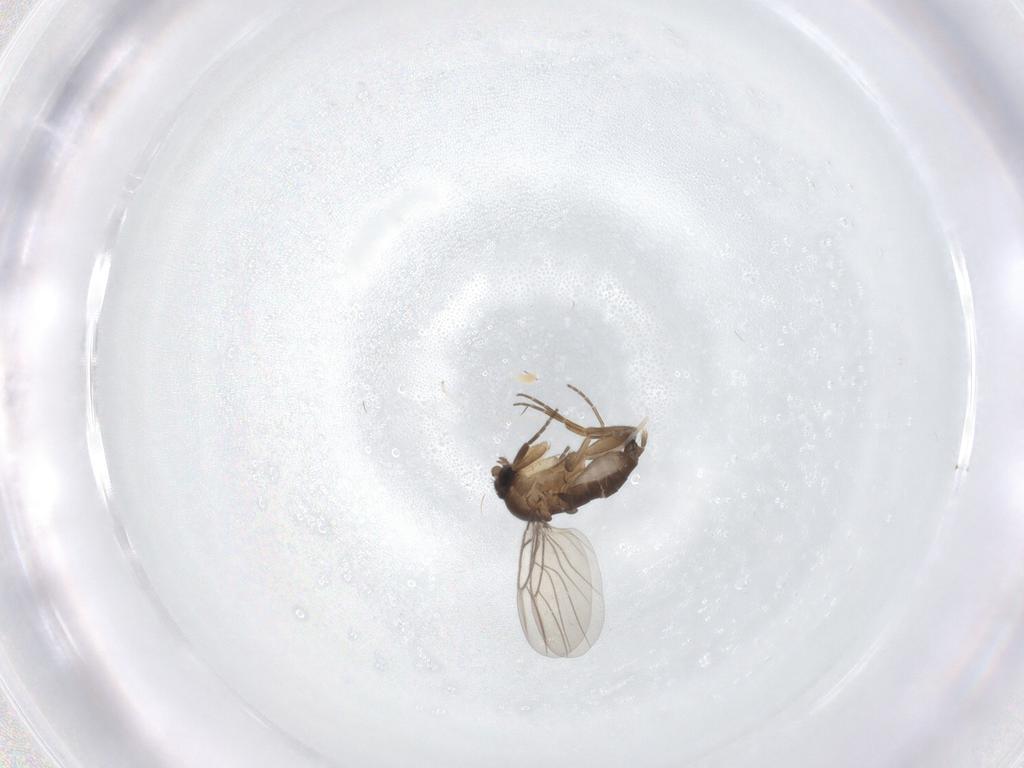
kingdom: Animalia
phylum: Arthropoda
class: Insecta
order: Diptera
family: Phoridae
